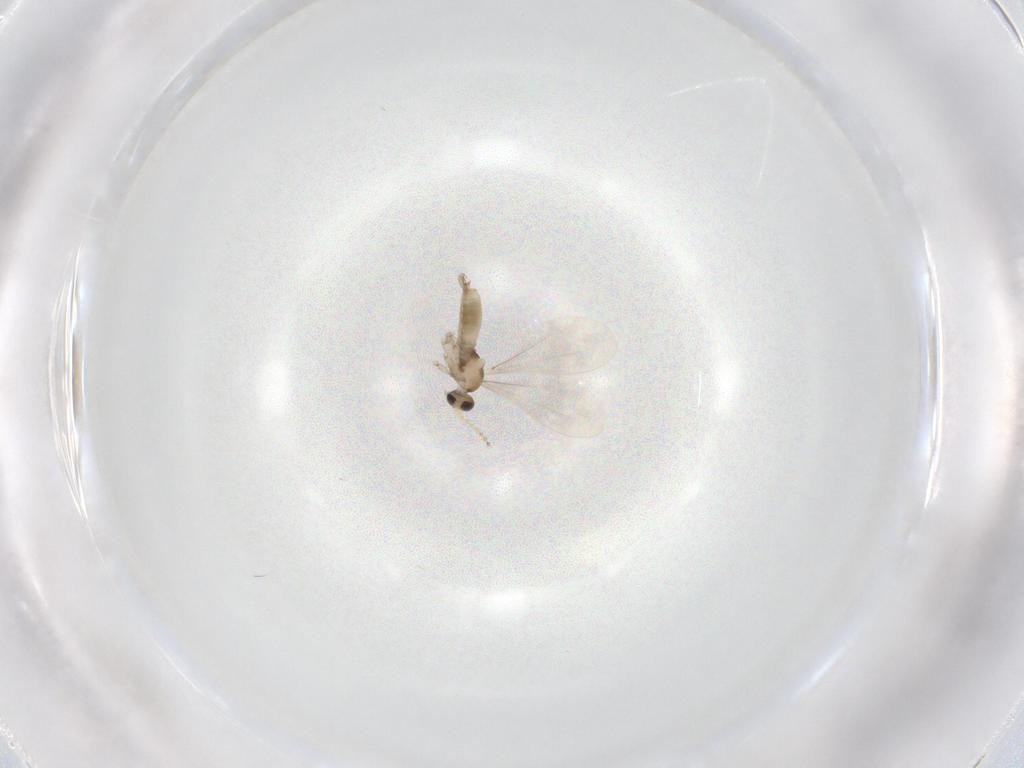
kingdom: Animalia
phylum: Arthropoda
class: Insecta
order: Diptera
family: Cecidomyiidae
